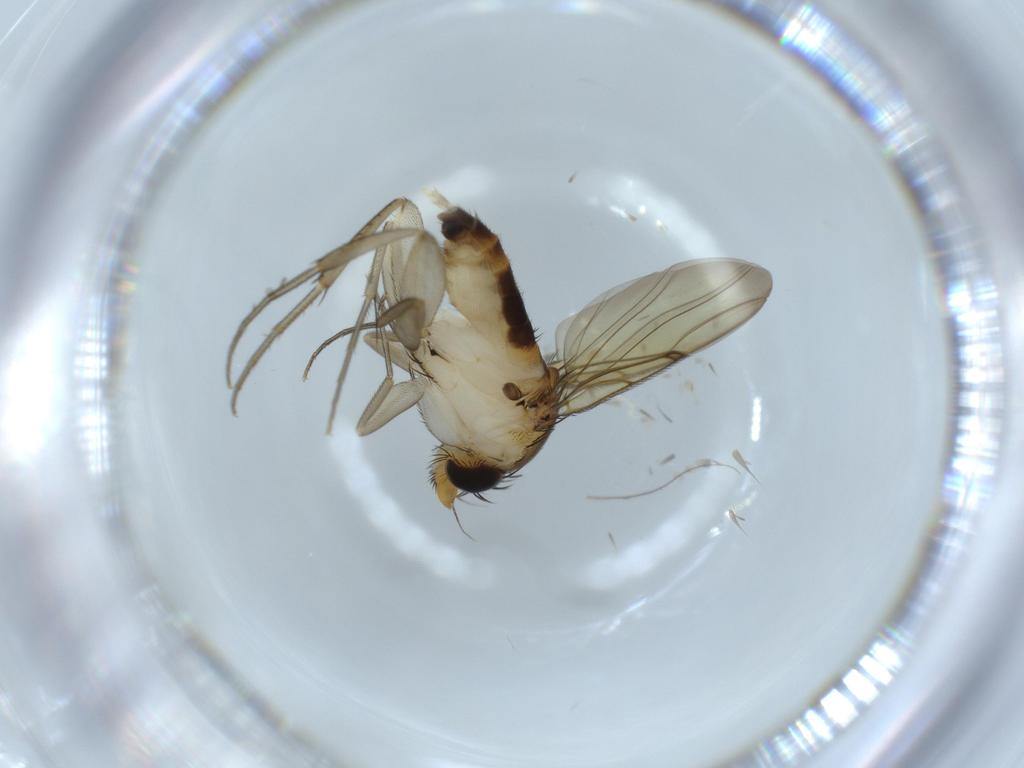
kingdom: Animalia
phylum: Arthropoda
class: Insecta
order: Diptera
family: Phoridae
